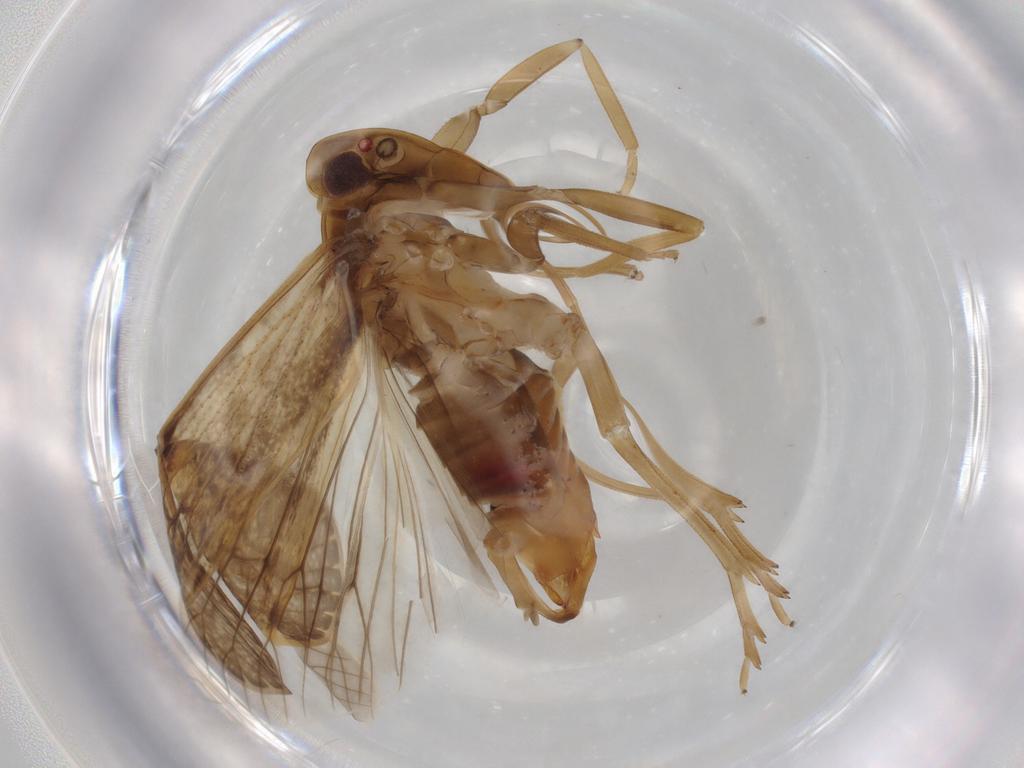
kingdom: Animalia
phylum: Arthropoda
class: Insecta
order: Hemiptera
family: Cixiidae
